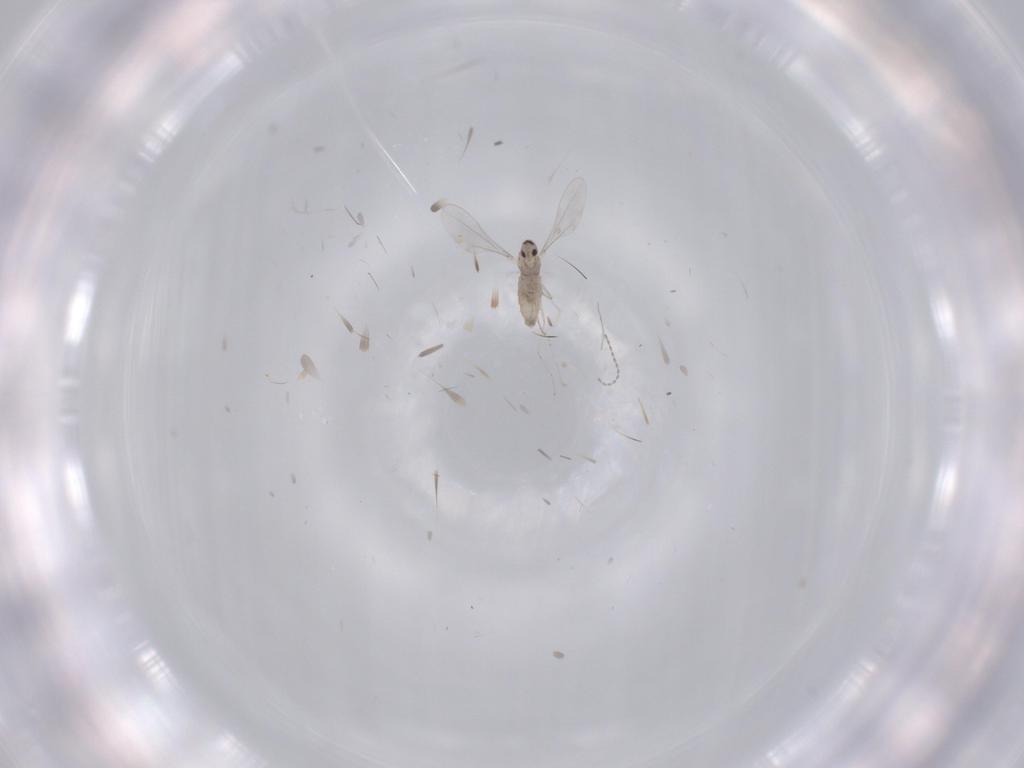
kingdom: Animalia
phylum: Arthropoda
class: Insecta
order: Diptera
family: Cecidomyiidae
